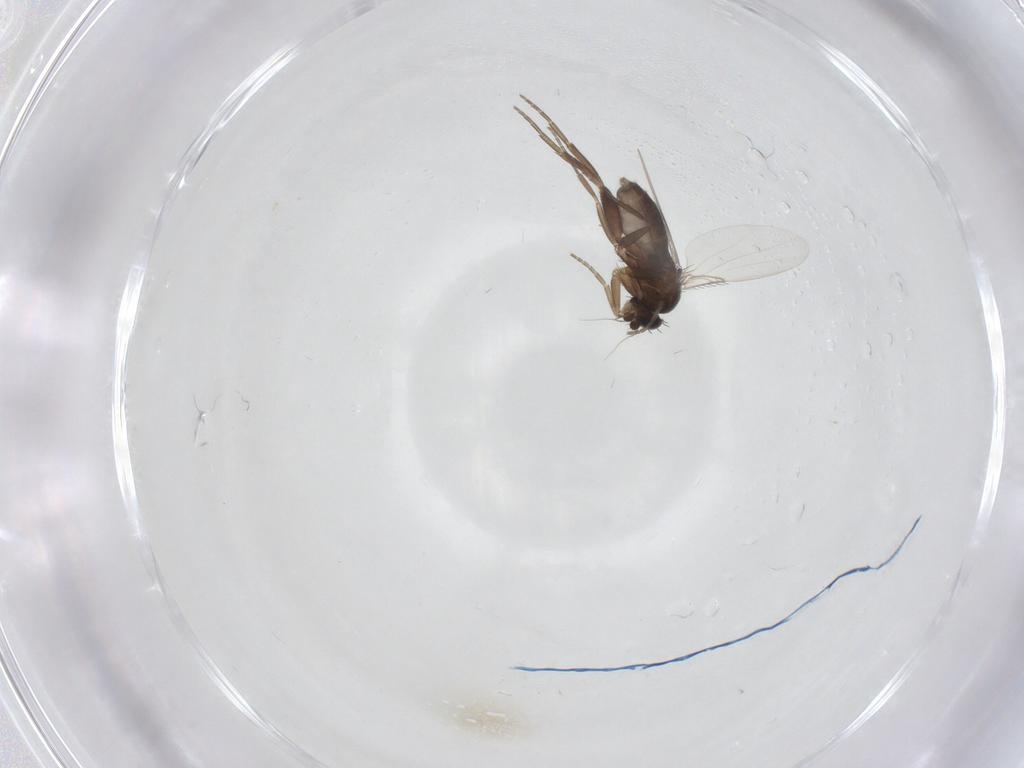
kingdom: Animalia
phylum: Arthropoda
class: Insecta
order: Diptera
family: Phoridae
